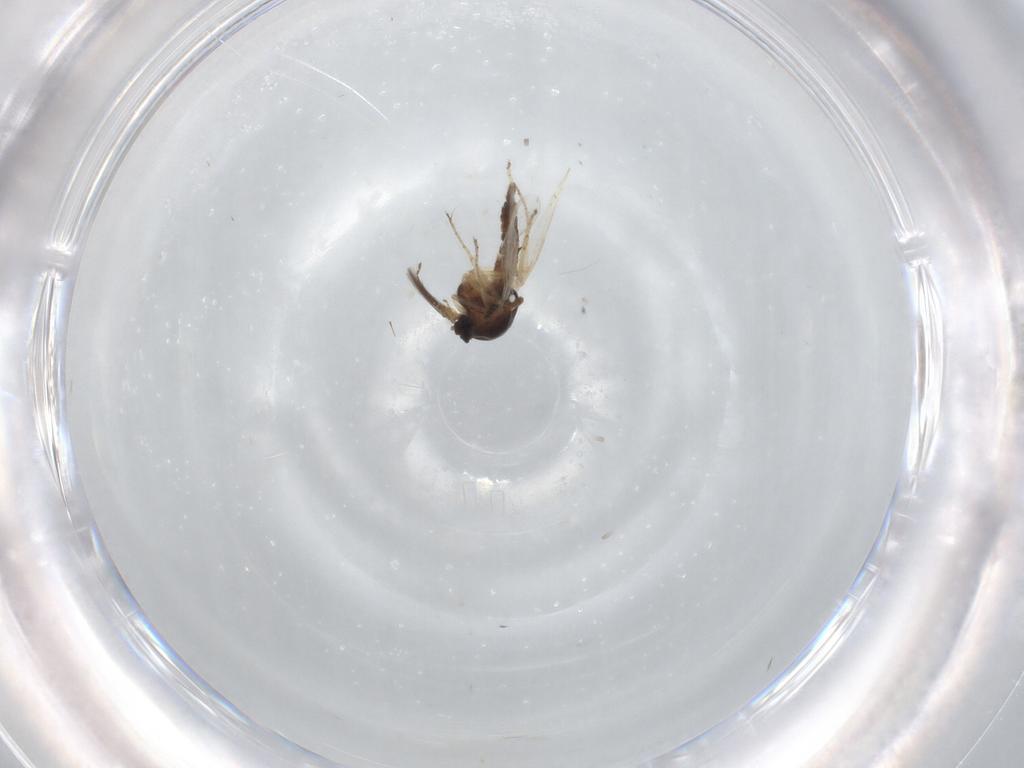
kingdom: Animalia
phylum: Arthropoda
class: Insecta
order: Diptera
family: Ceratopogonidae
